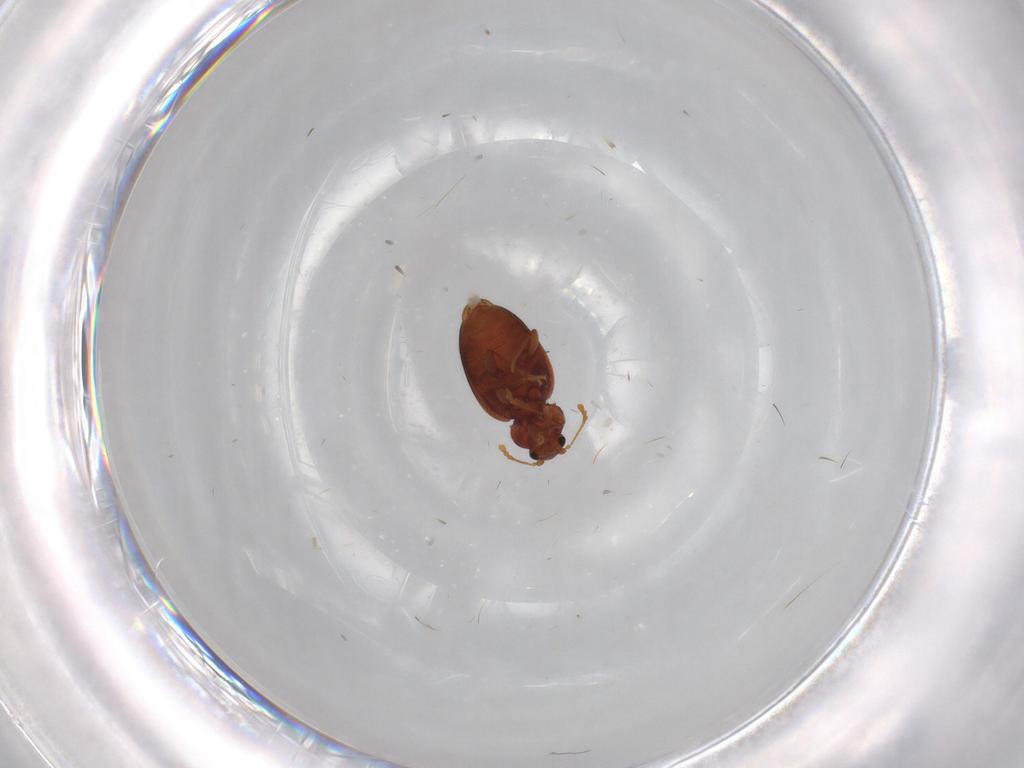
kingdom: Animalia
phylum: Arthropoda
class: Insecta
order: Coleoptera
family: Latridiidae
